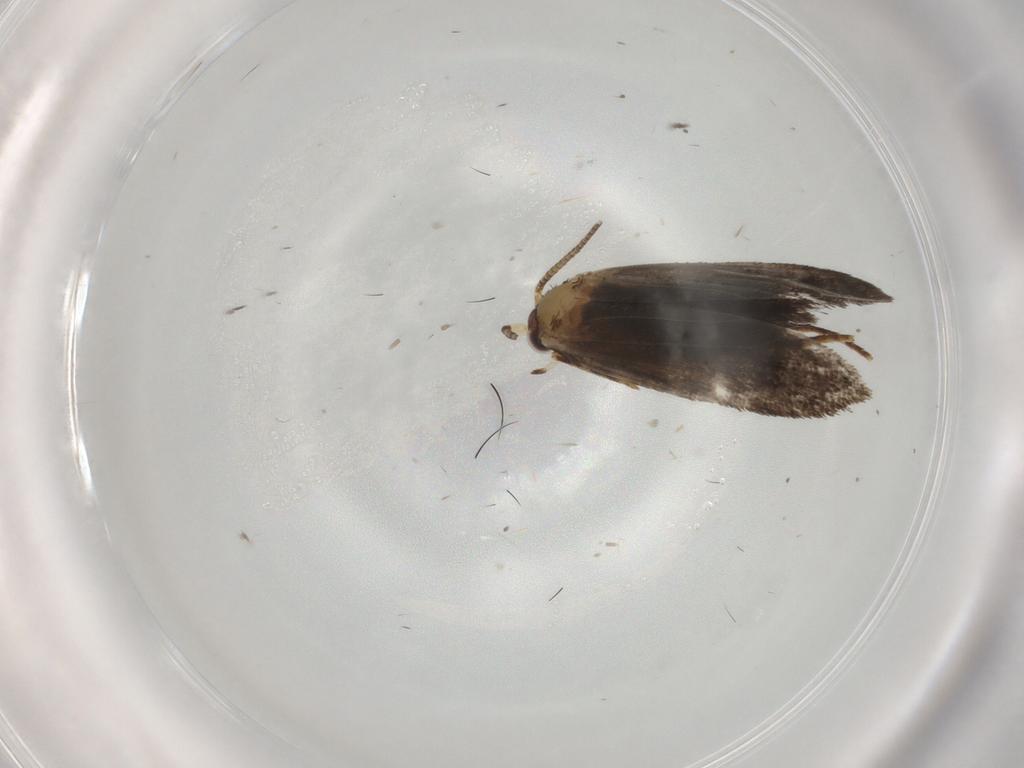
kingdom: Animalia
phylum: Arthropoda
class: Insecta
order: Lepidoptera
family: Nepticulidae
